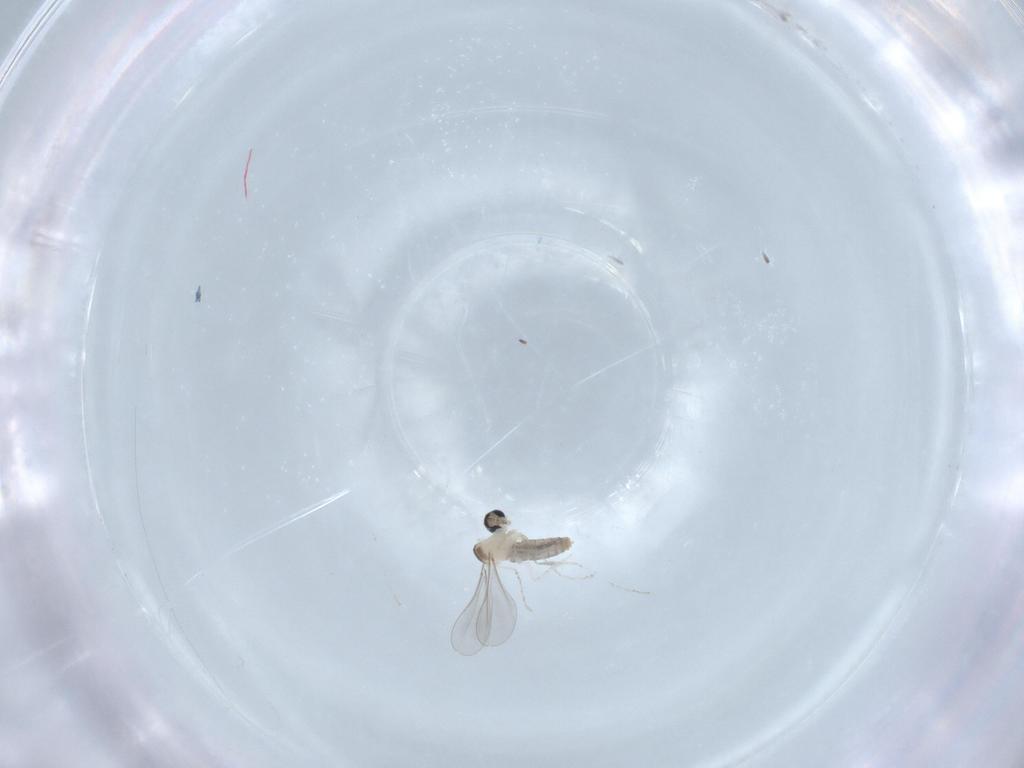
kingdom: Animalia
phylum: Arthropoda
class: Insecta
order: Diptera
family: Cecidomyiidae
